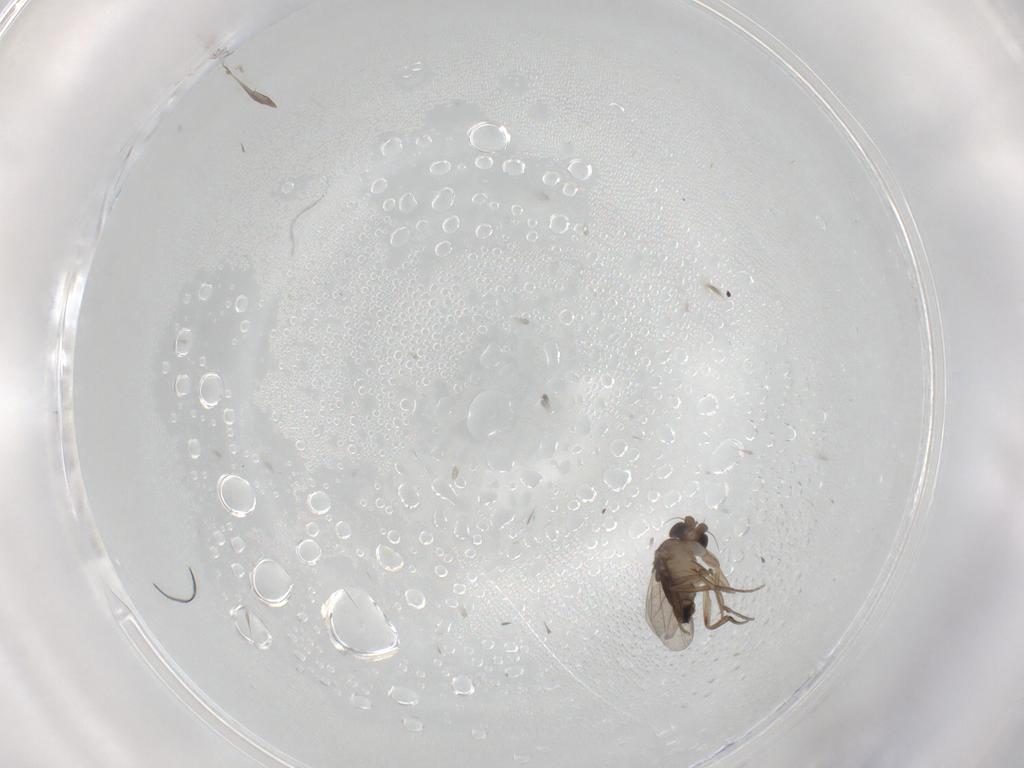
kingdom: Animalia
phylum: Arthropoda
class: Insecta
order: Diptera
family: Phoridae
